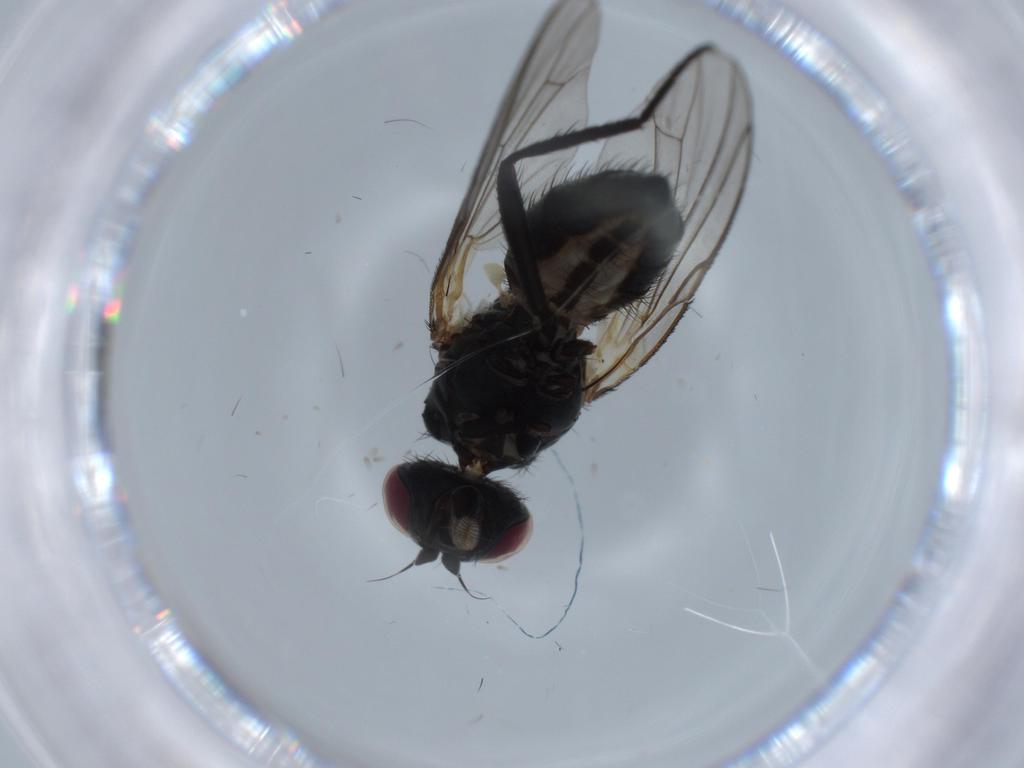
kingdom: Animalia
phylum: Arthropoda
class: Insecta
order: Diptera
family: Anthomyiidae
